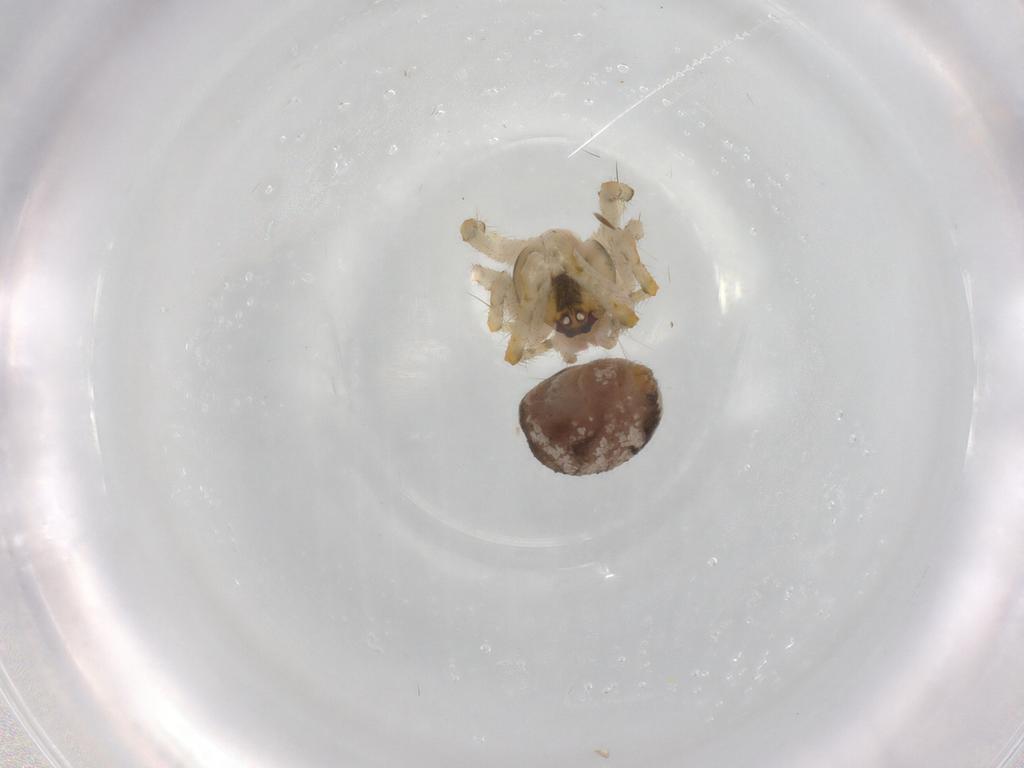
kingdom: Animalia
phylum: Arthropoda
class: Arachnida
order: Araneae
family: Theridiidae
